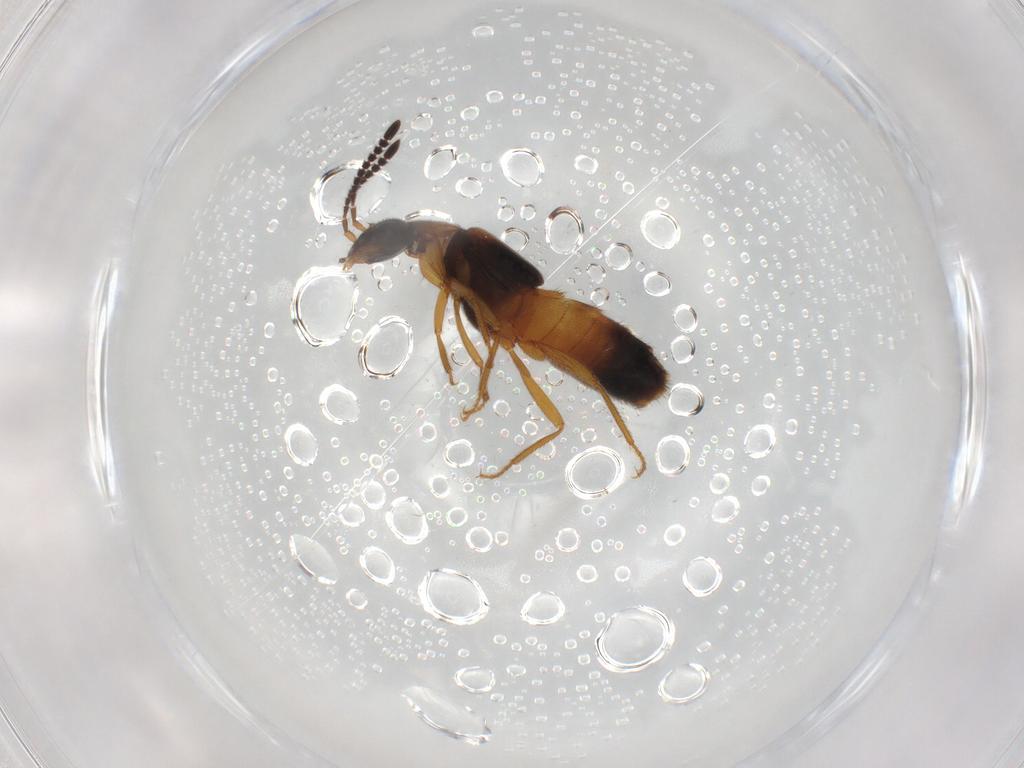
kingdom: Animalia
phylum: Arthropoda
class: Insecta
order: Coleoptera
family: Staphylinidae
